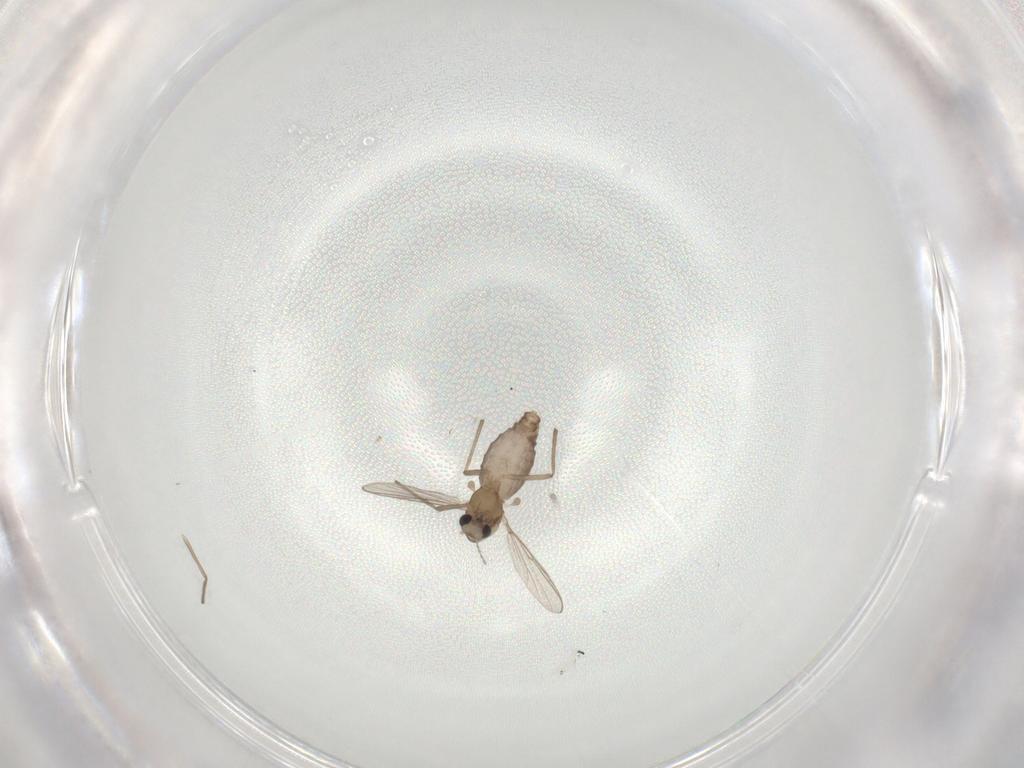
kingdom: Animalia
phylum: Arthropoda
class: Insecta
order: Diptera
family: Chironomidae
